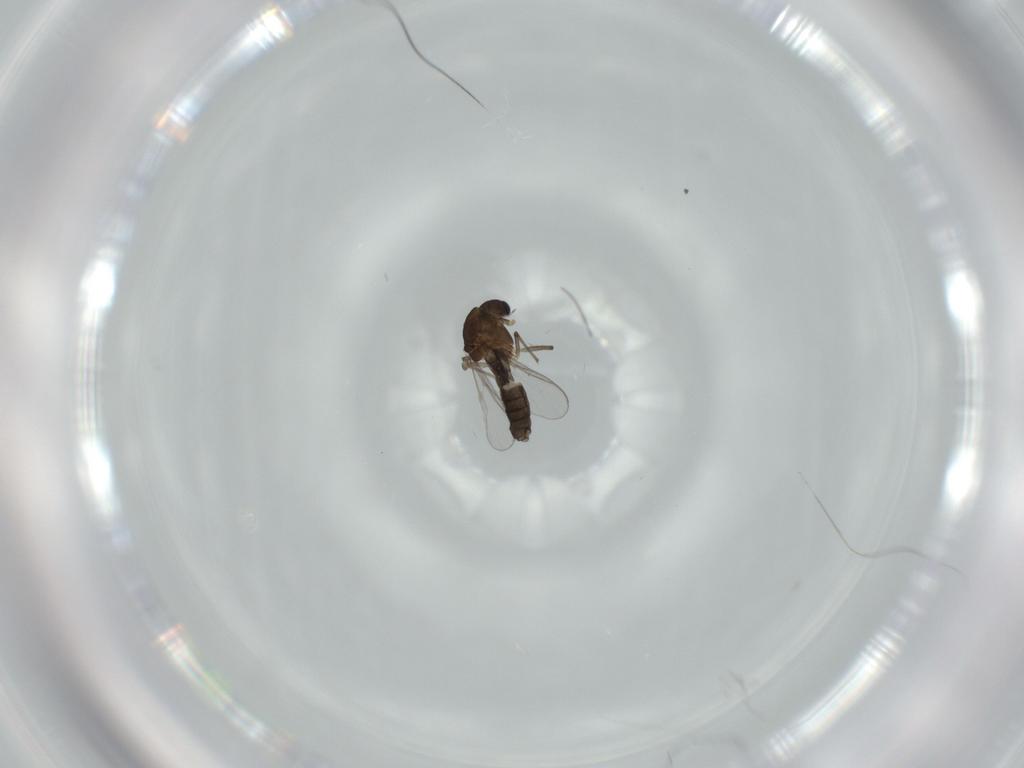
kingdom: Animalia
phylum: Arthropoda
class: Insecta
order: Diptera
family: Chironomidae
